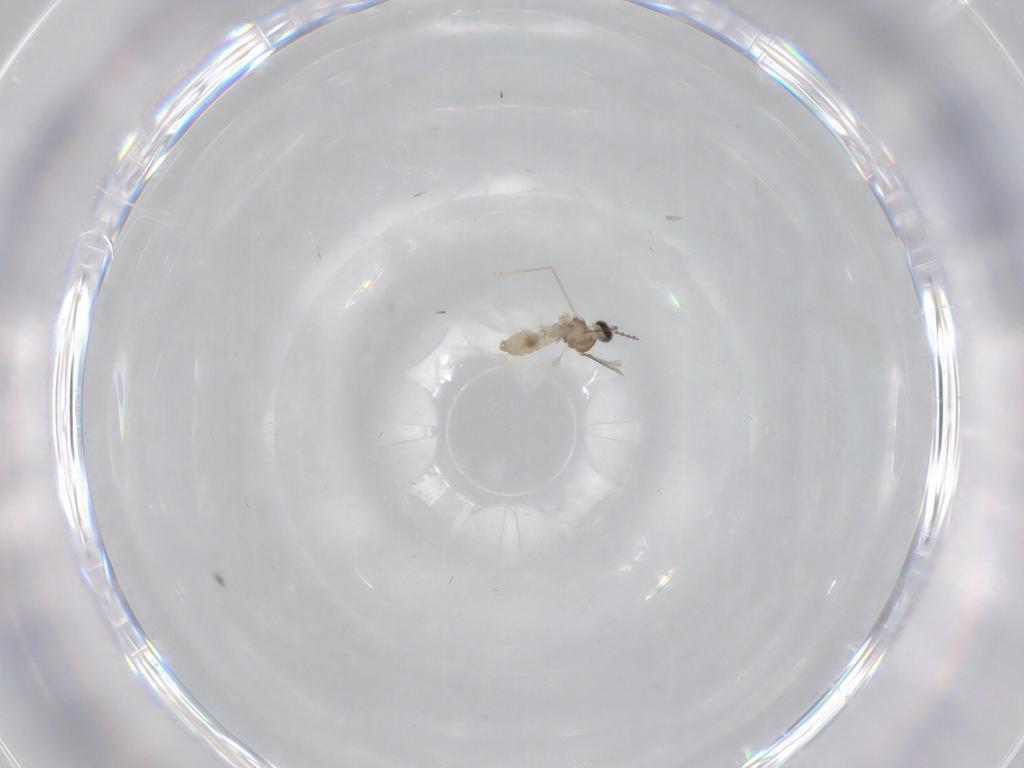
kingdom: Animalia
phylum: Arthropoda
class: Insecta
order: Diptera
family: Cecidomyiidae
